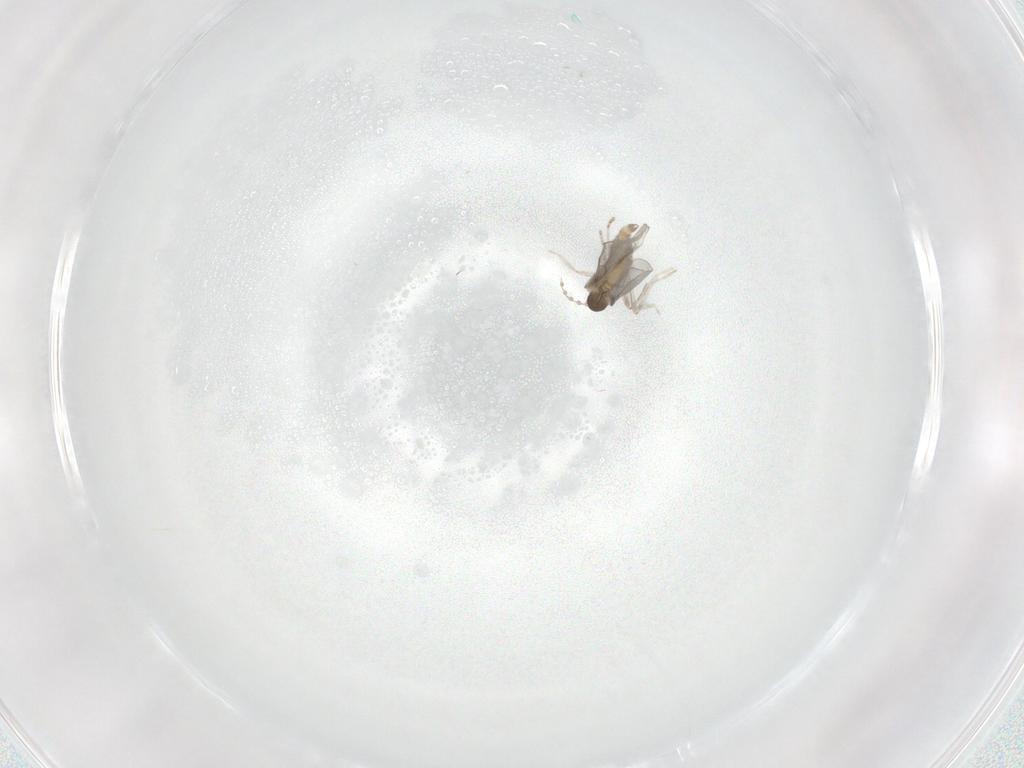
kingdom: Animalia
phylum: Arthropoda
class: Insecta
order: Diptera
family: Cecidomyiidae
